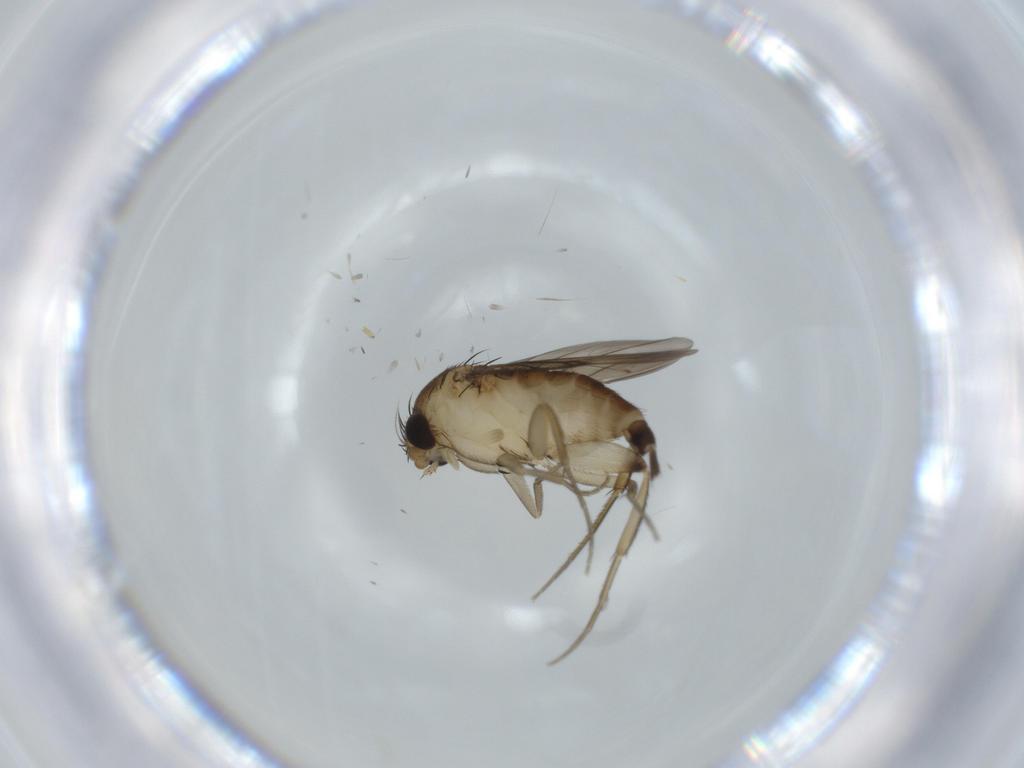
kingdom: Animalia
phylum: Arthropoda
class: Insecta
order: Diptera
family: Phoridae
